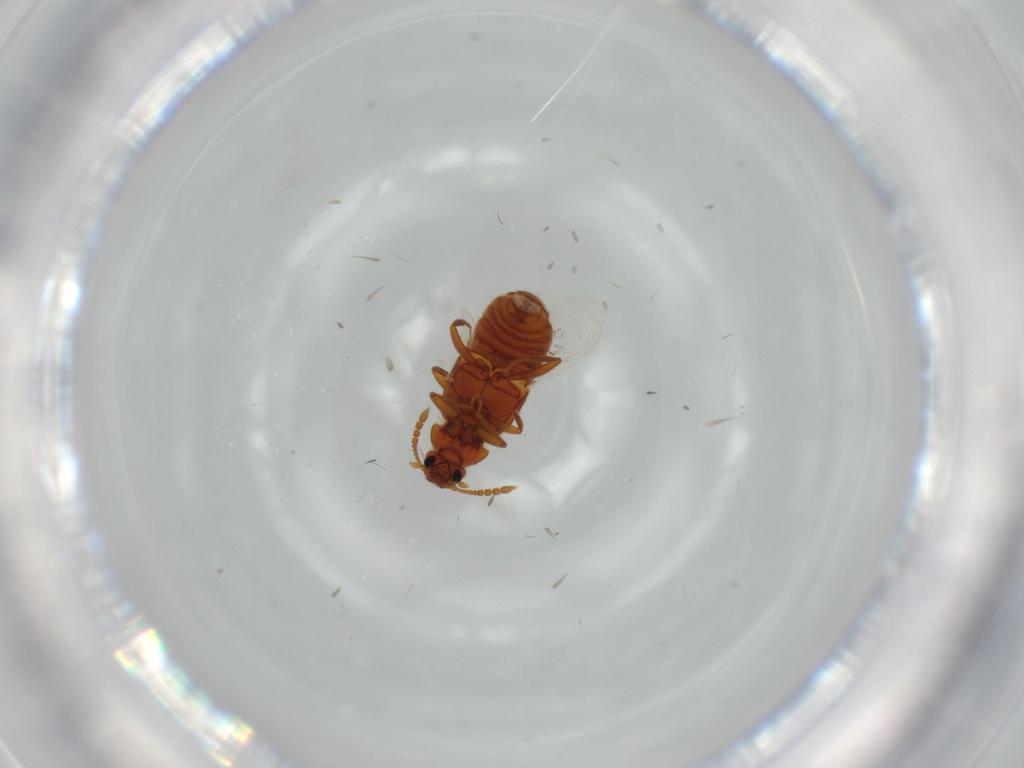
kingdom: Animalia
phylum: Arthropoda
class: Insecta
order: Coleoptera
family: Staphylinidae
